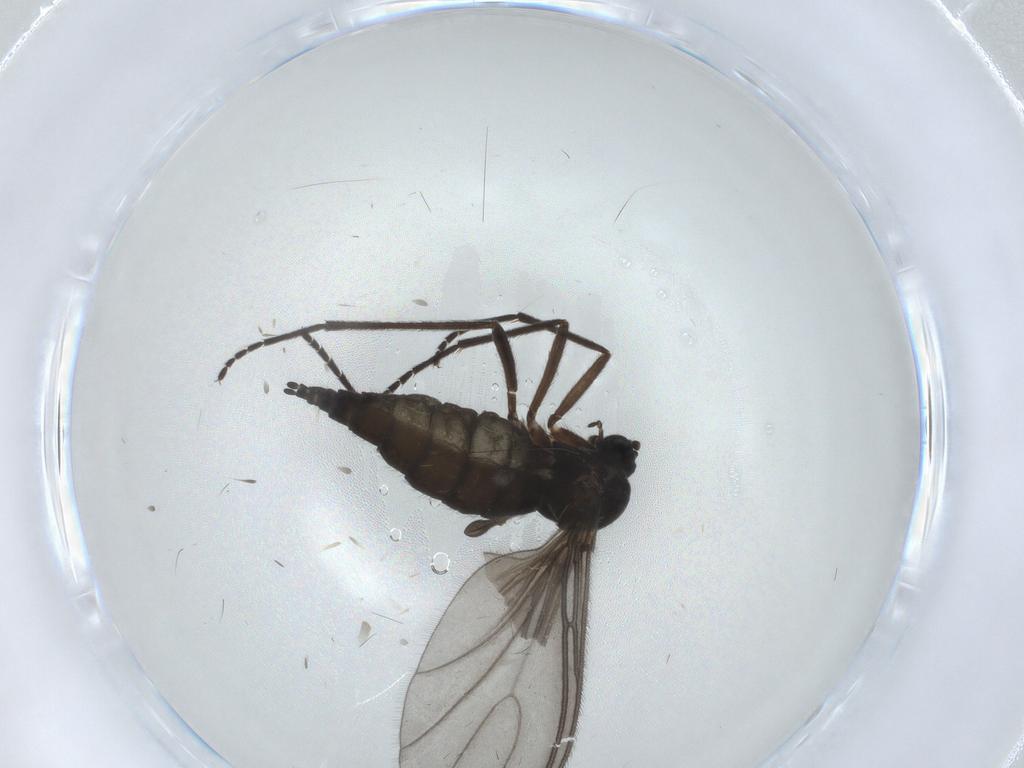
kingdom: Animalia
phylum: Arthropoda
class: Insecta
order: Diptera
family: Sciaridae
